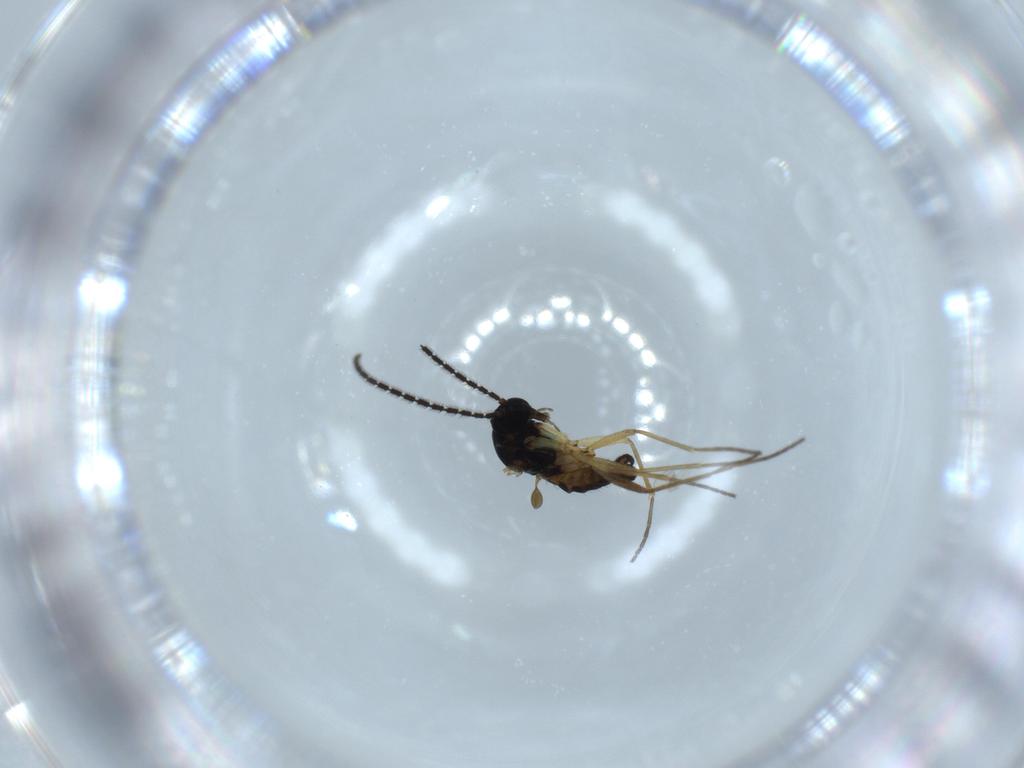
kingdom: Animalia
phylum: Arthropoda
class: Insecta
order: Diptera
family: Sciaridae
